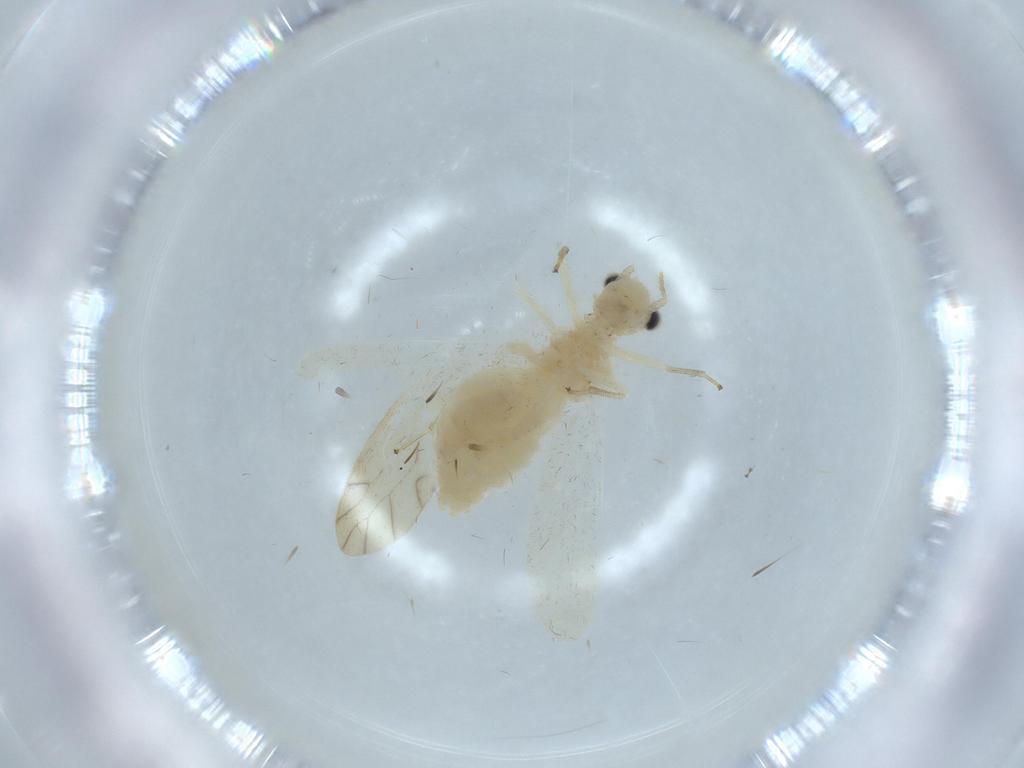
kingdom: Animalia
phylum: Arthropoda
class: Insecta
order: Psocodea
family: Caeciliusidae
